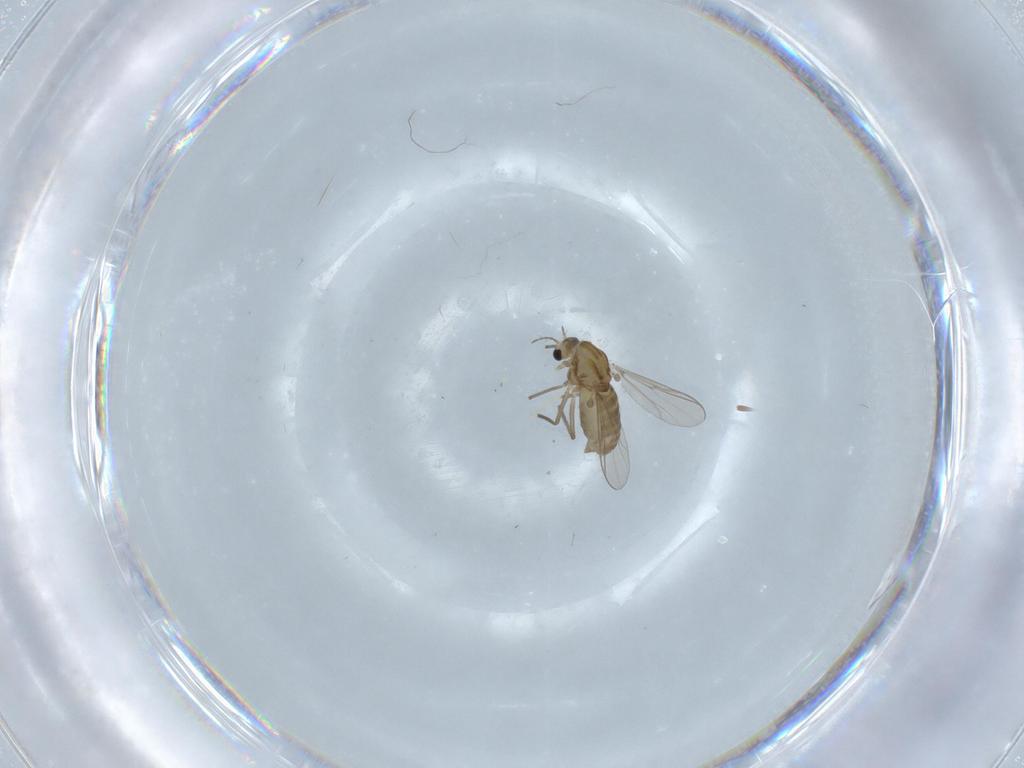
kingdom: Animalia
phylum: Arthropoda
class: Insecta
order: Diptera
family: Chironomidae
